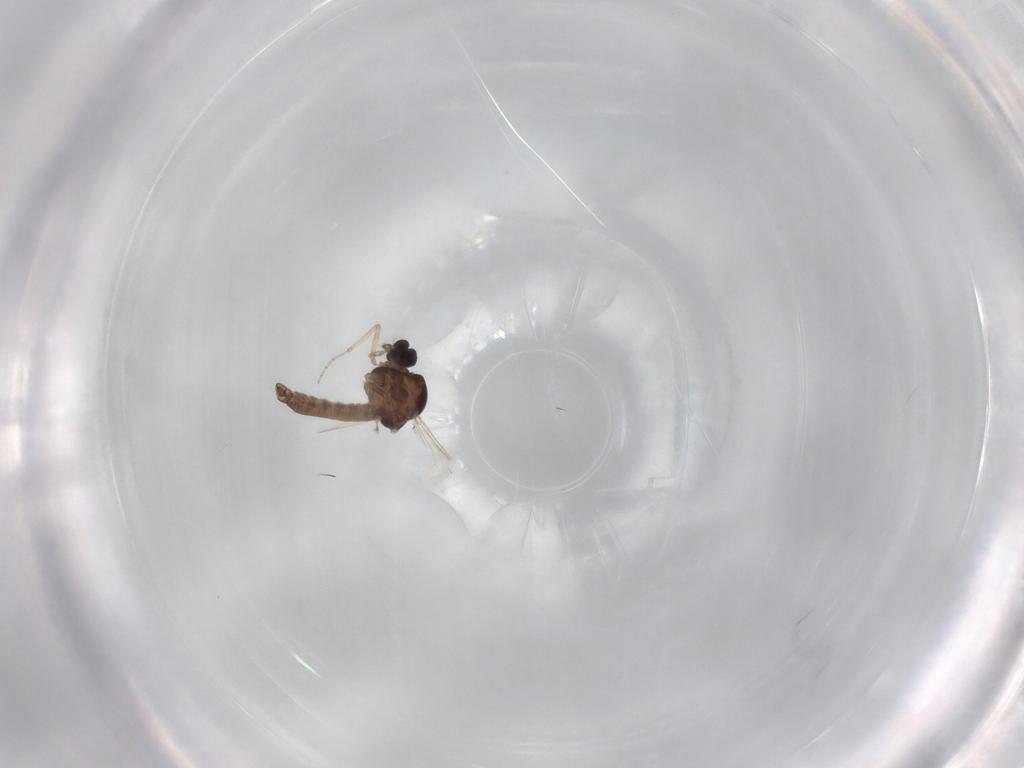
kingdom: Animalia
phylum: Arthropoda
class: Insecta
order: Diptera
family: Ceratopogonidae
